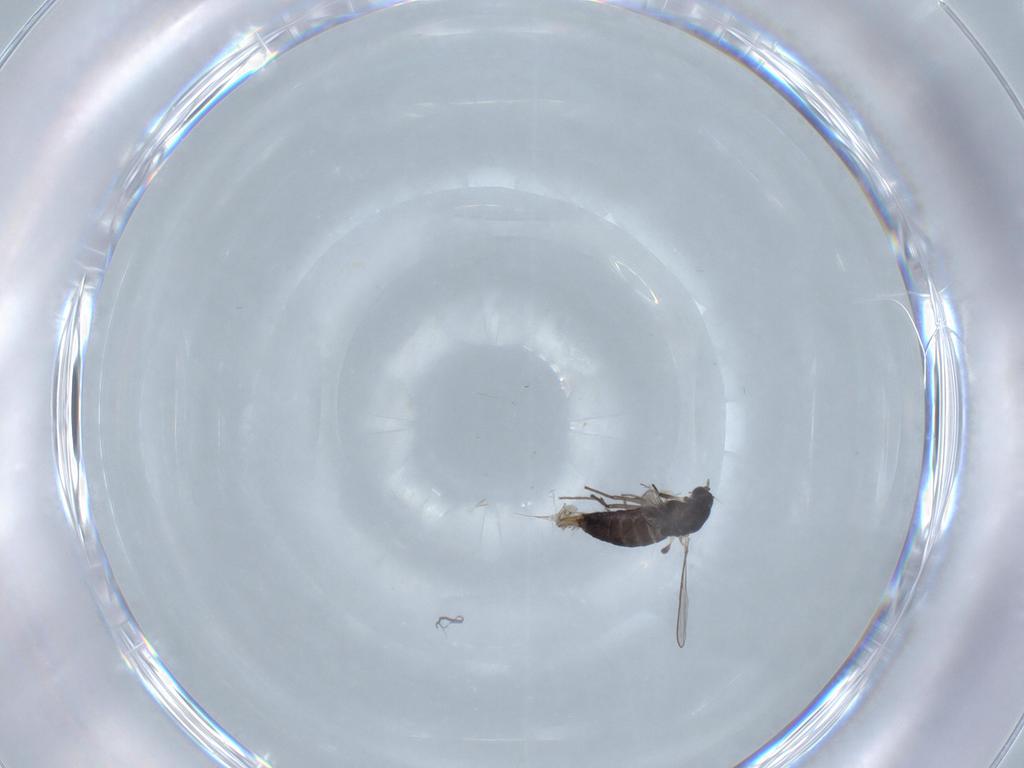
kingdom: Animalia
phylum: Arthropoda
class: Insecta
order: Diptera
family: Chironomidae
